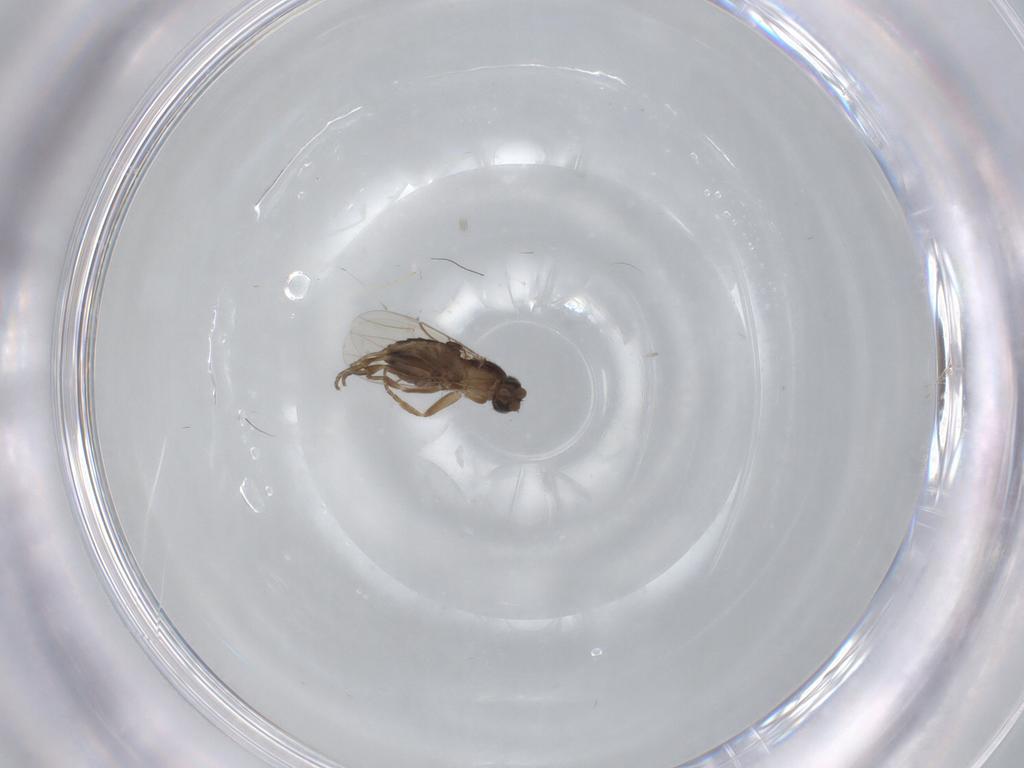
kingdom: Animalia
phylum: Arthropoda
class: Insecta
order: Diptera
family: Phoridae
